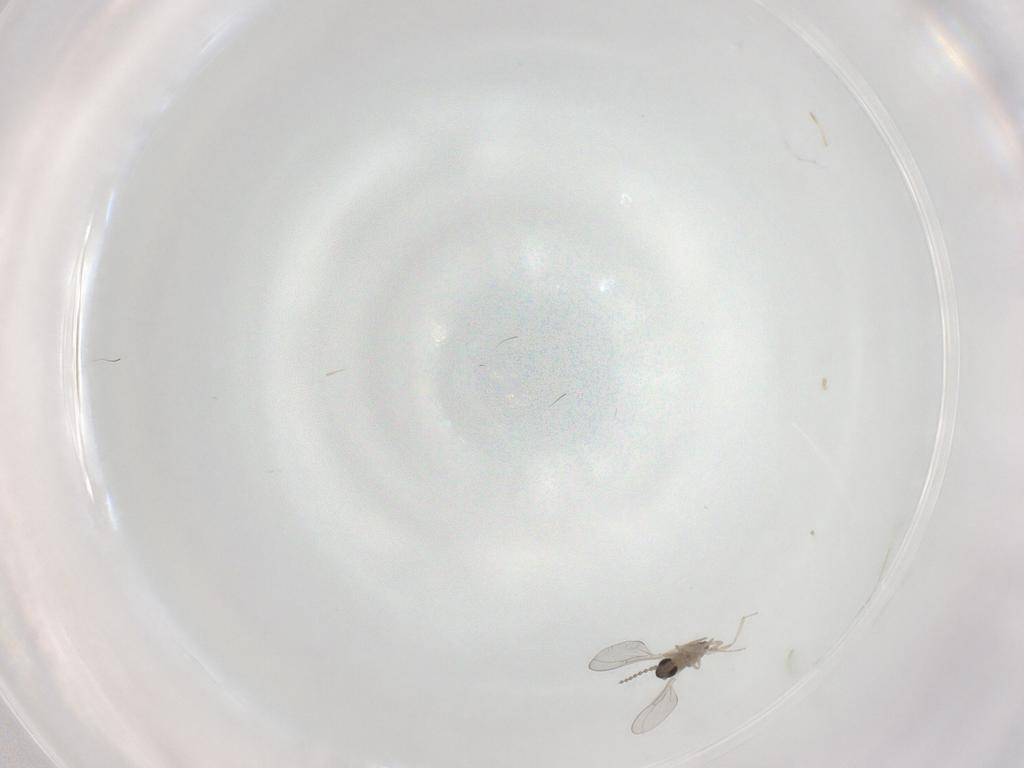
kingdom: Animalia
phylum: Arthropoda
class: Insecta
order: Diptera
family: Cecidomyiidae
